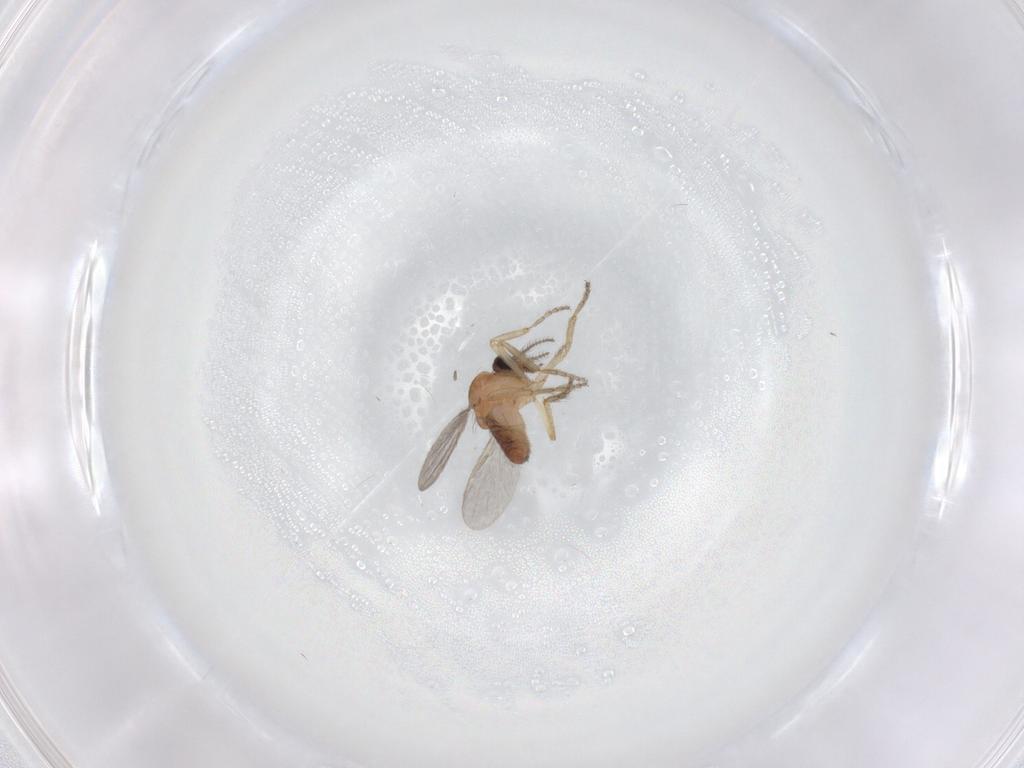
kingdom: Animalia
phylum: Arthropoda
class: Insecta
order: Diptera
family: Ceratopogonidae
